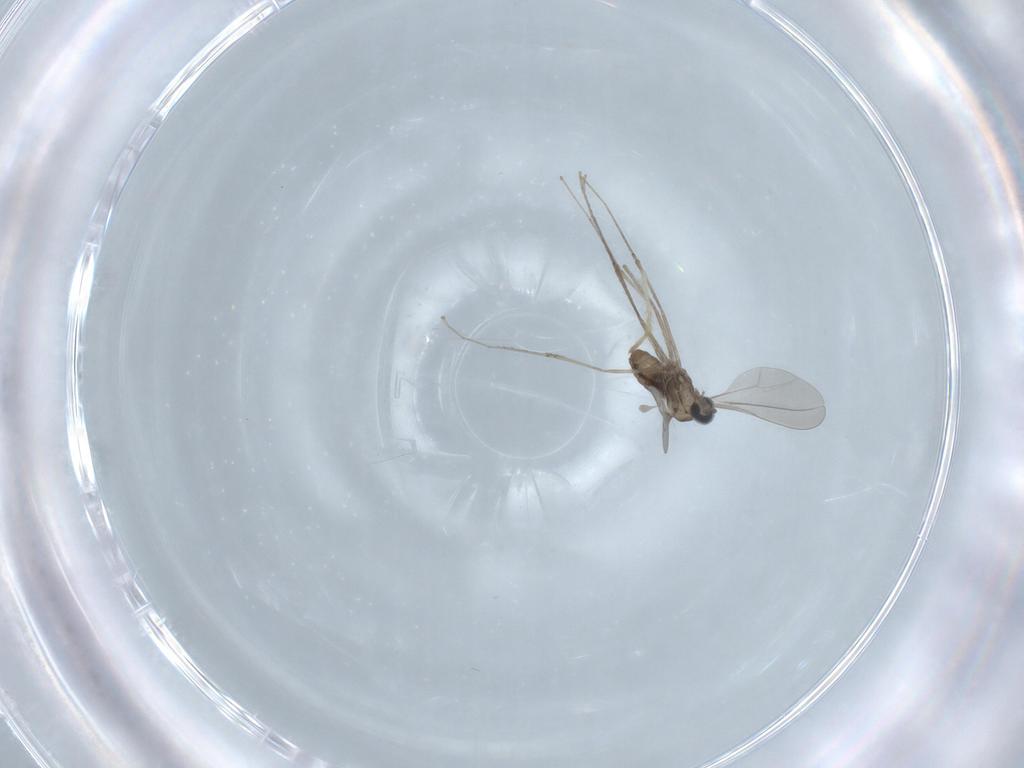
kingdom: Animalia
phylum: Arthropoda
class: Insecta
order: Diptera
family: Cecidomyiidae
